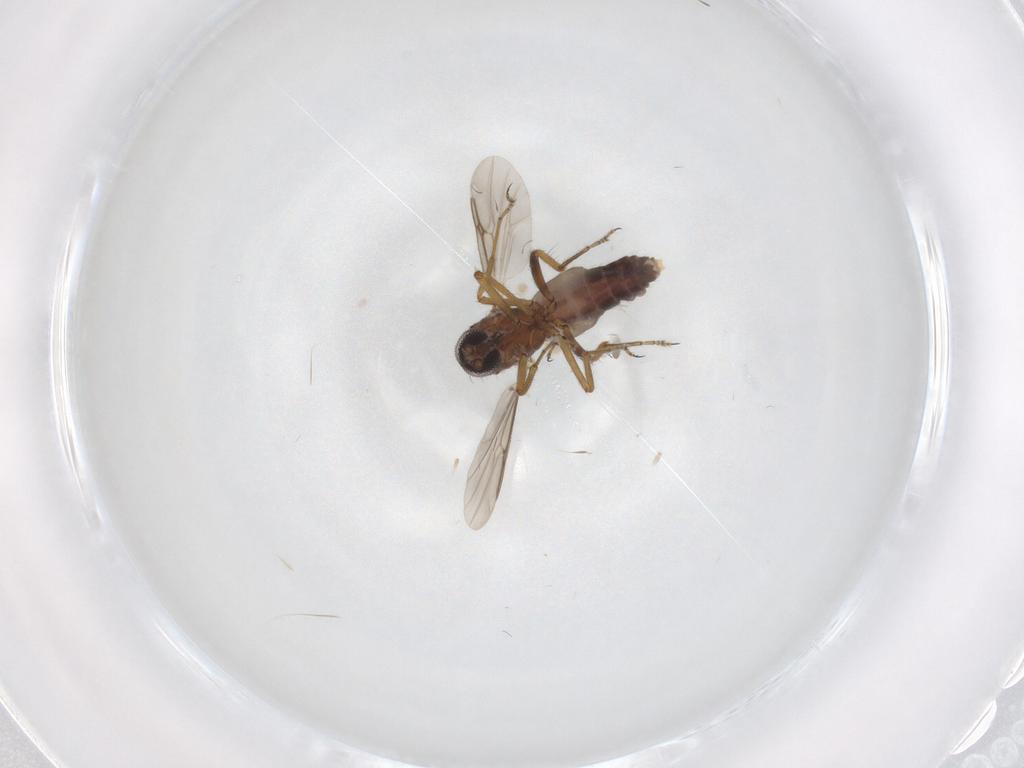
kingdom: Animalia
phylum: Arthropoda
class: Insecta
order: Diptera
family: Ceratopogonidae
